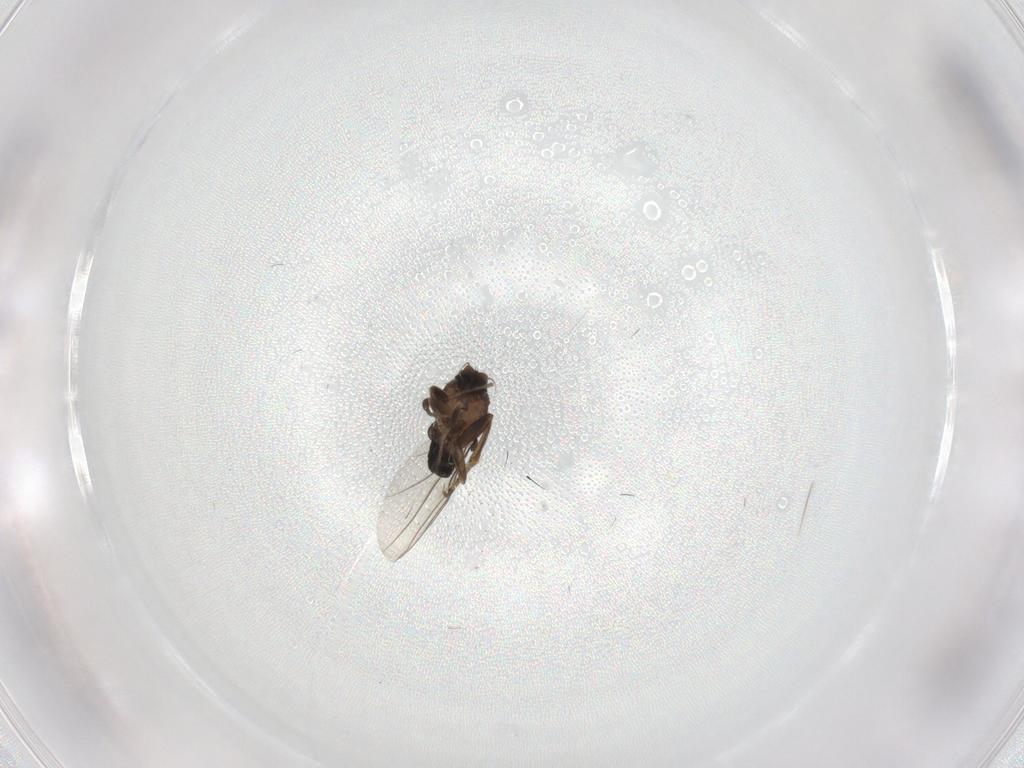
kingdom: Animalia
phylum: Arthropoda
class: Insecta
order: Diptera
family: Phoridae
